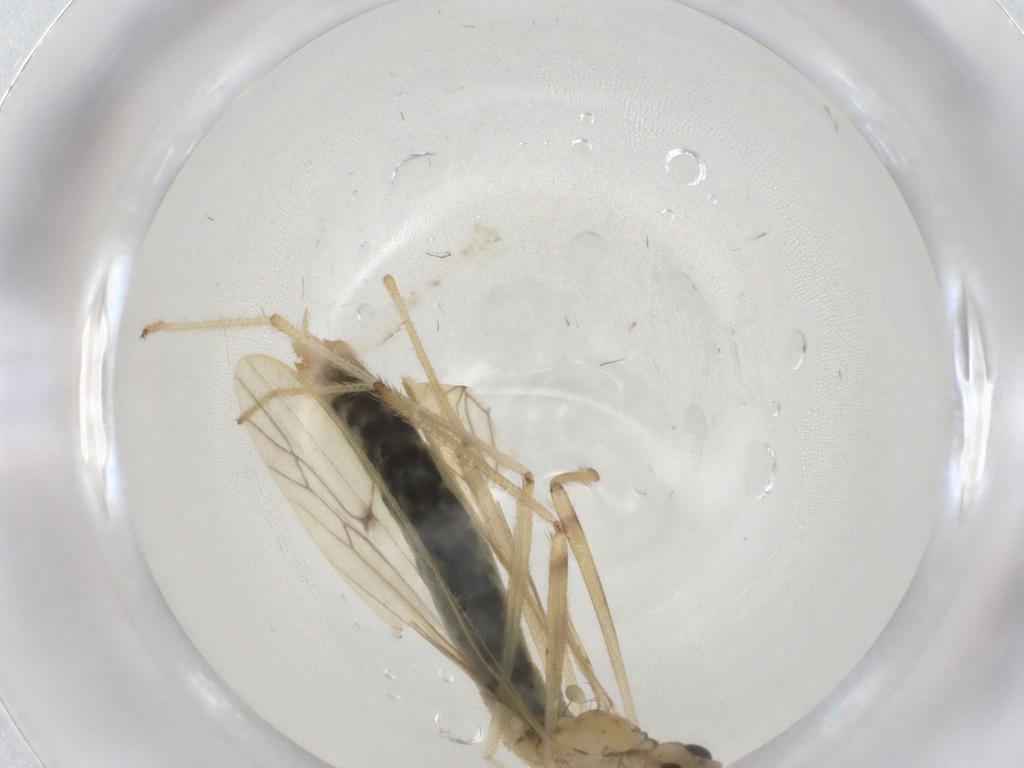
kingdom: Animalia
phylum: Arthropoda
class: Insecta
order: Diptera
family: Limoniidae
